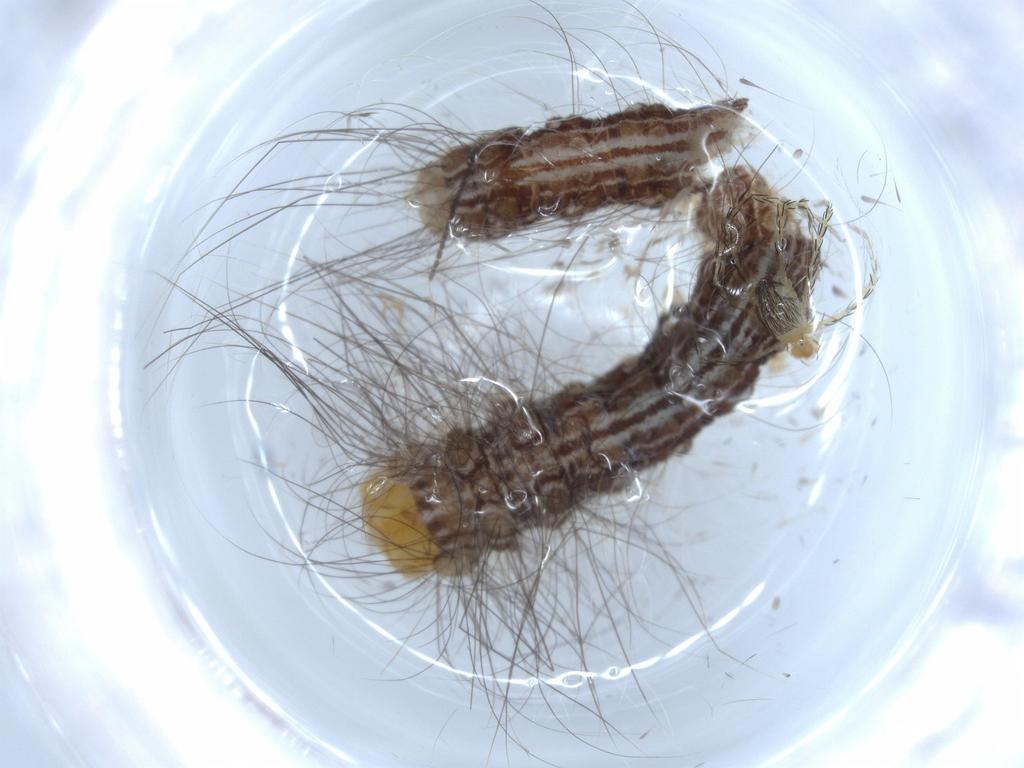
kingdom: Animalia
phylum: Arthropoda
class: Insecta
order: Lepidoptera
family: Apatelodidae
